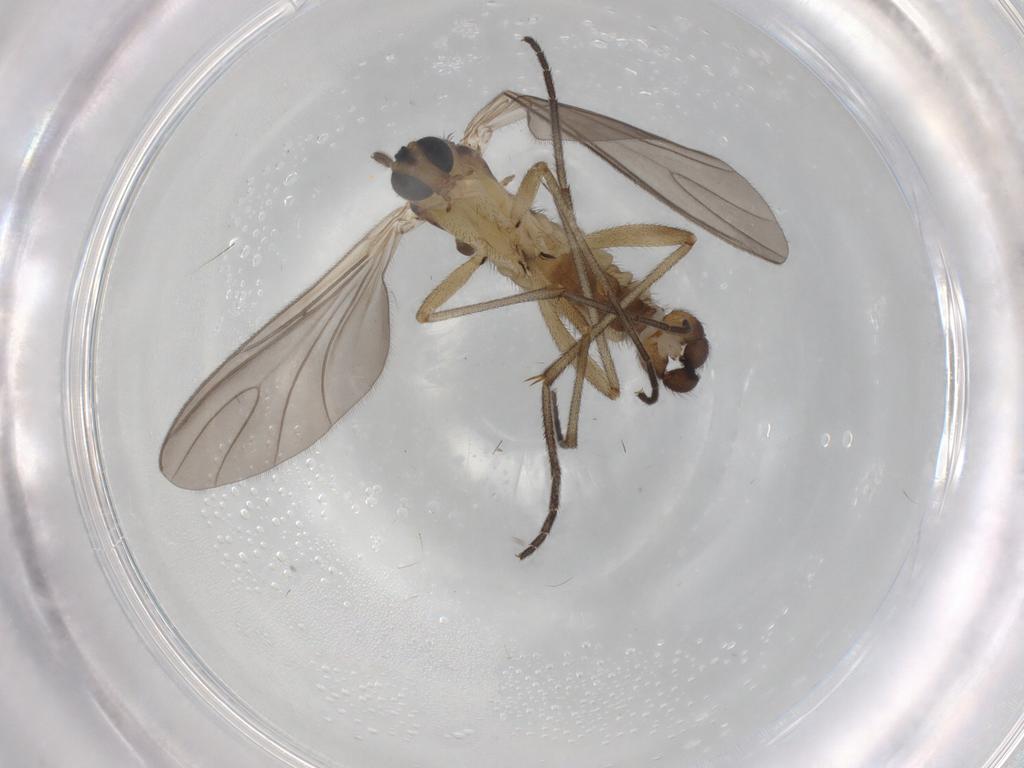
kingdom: Animalia
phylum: Arthropoda
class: Insecta
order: Diptera
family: Sciaridae
